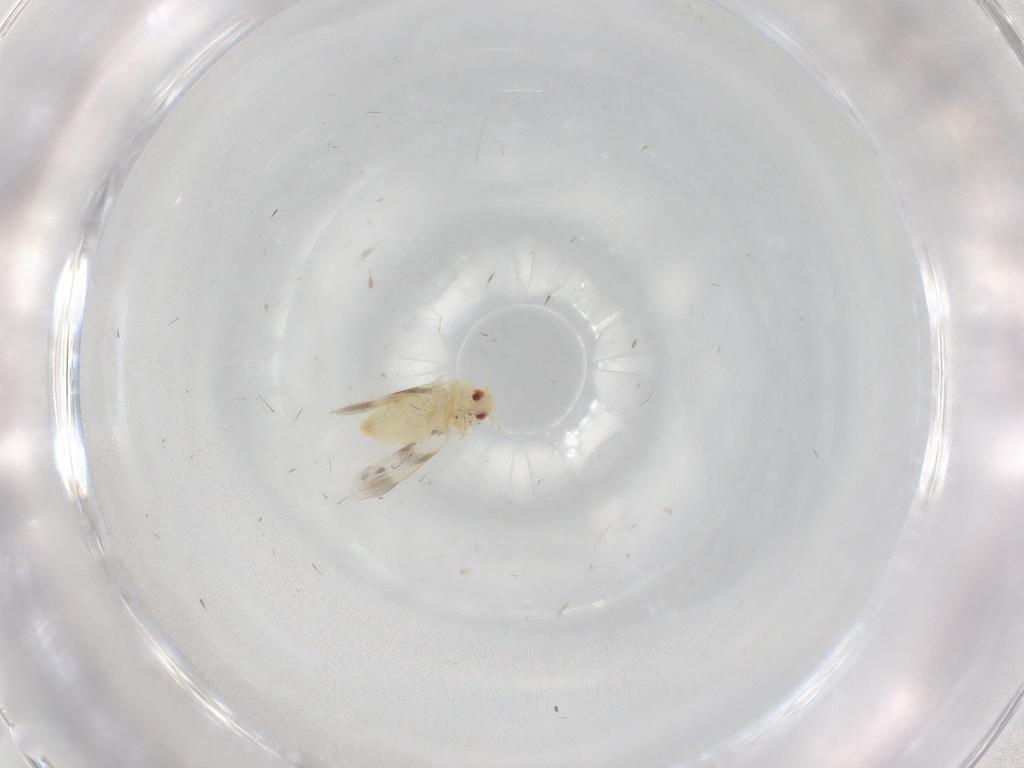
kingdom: Animalia
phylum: Arthropoda
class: Insecta
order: Hemiptera
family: Aleyrodidae
